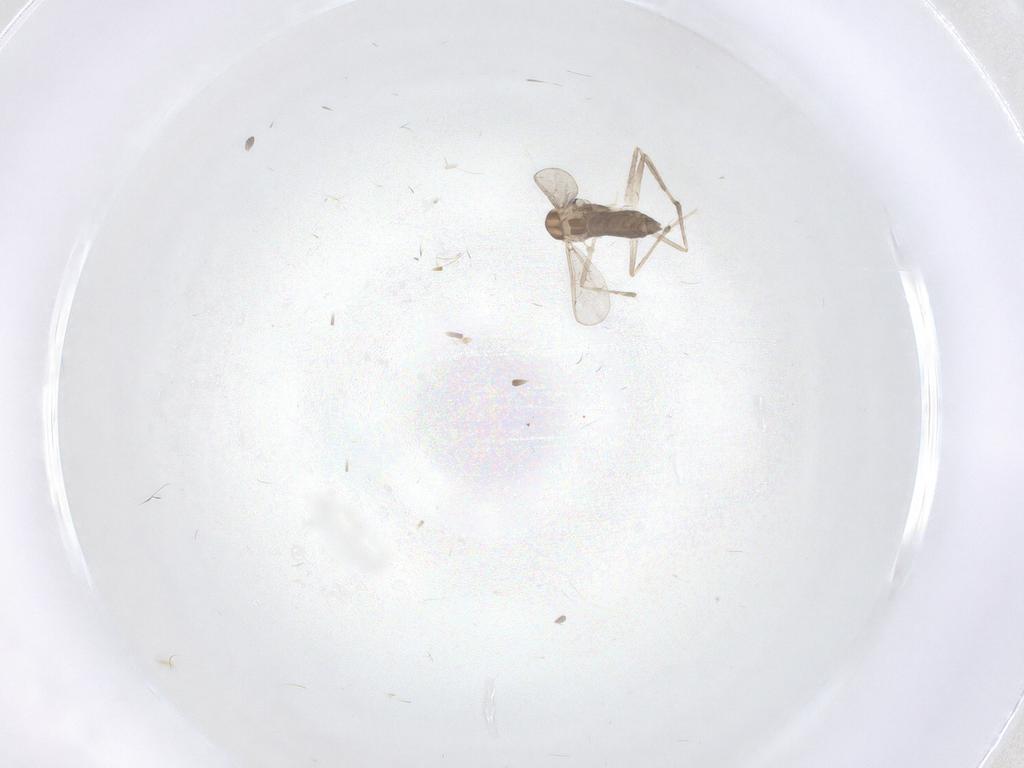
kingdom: Animalia
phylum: Arthropoda
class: Insecta
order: Diptera
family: Chironomidae
